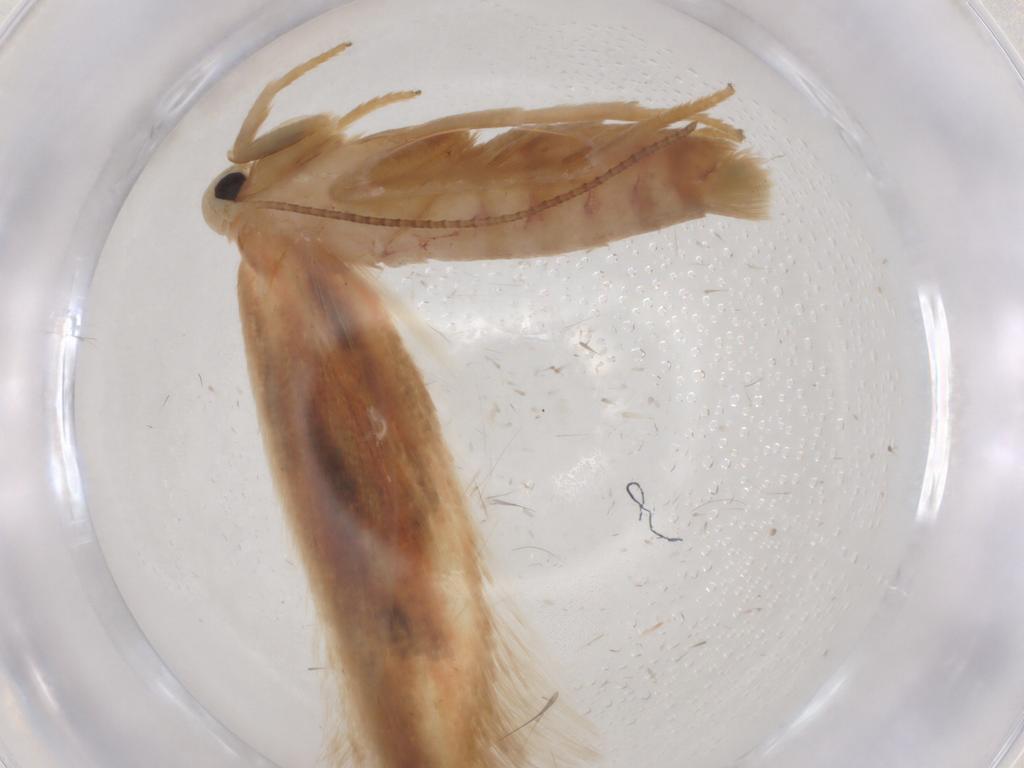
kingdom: Animalia
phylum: Arthropoda
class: Insecta
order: Lepidoptera
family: Geometridae
